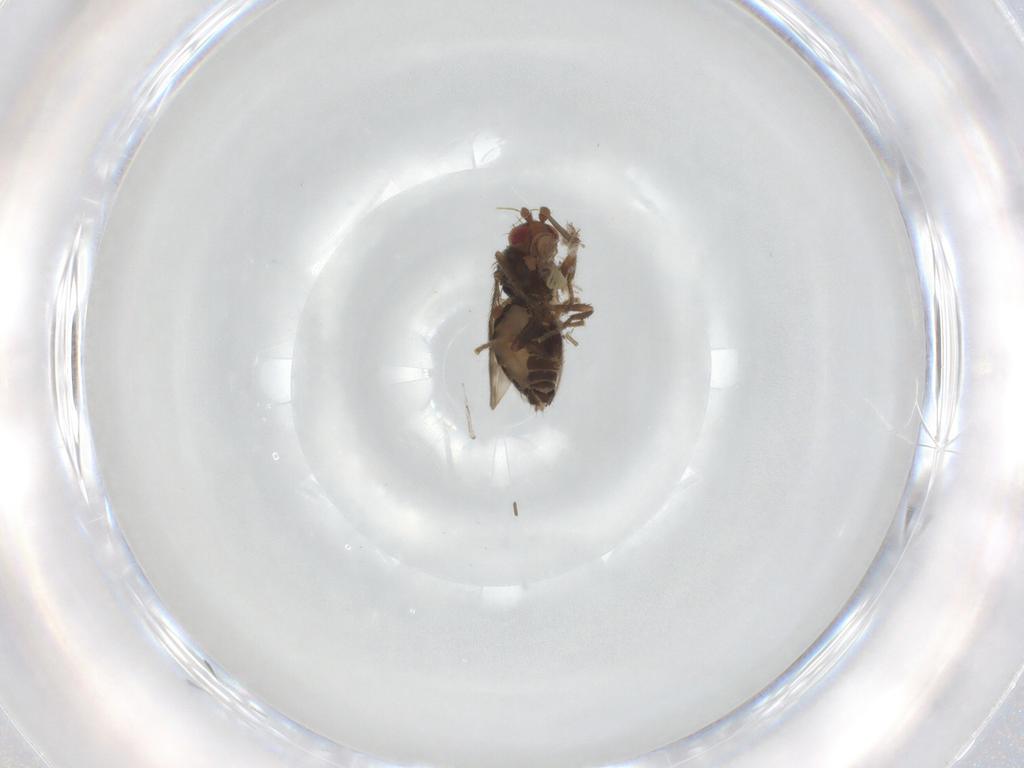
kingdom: Animalia
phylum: Arthropoda
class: Insecta
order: Diptera
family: Sphaeroceridae
